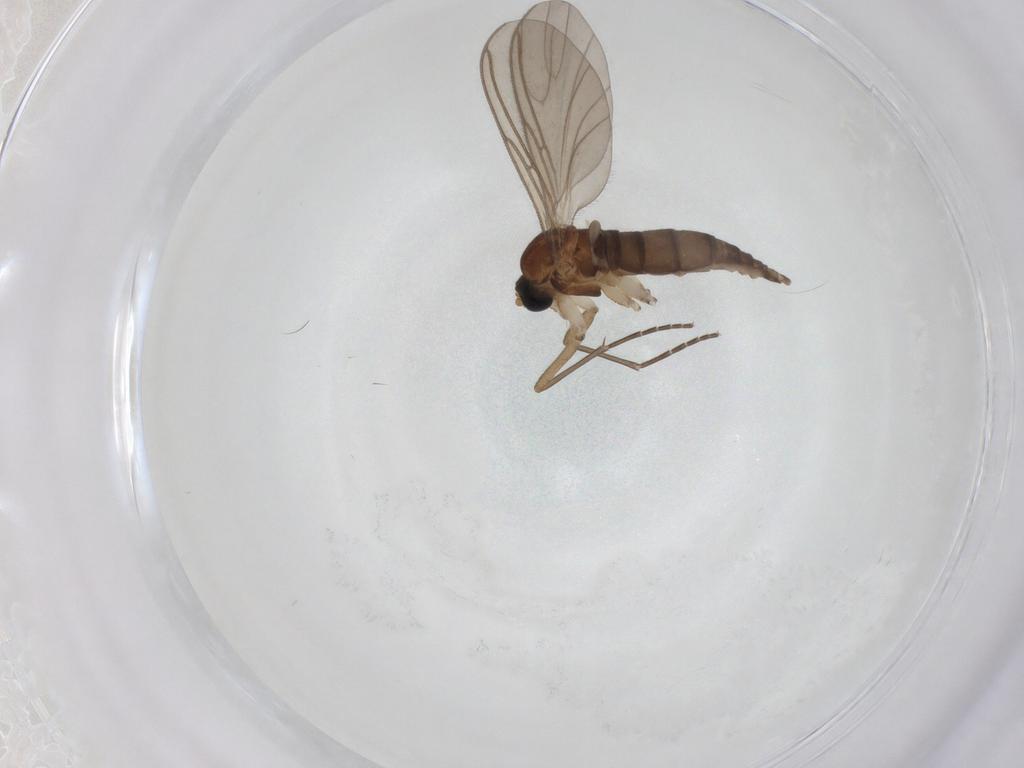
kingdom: Animalia
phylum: Arthropoda
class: Insecta
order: Diptera
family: Sciaridae
